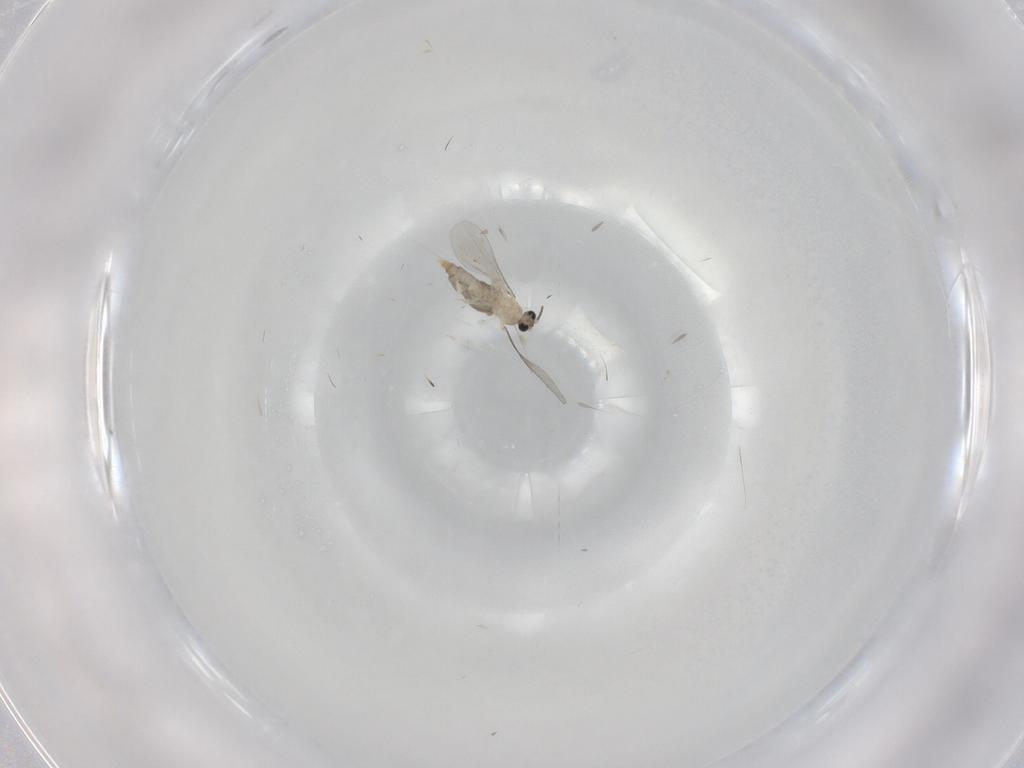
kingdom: Animalia
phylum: Arthropoda
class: Insecta
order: Diptera
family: Cecidomyiidae
